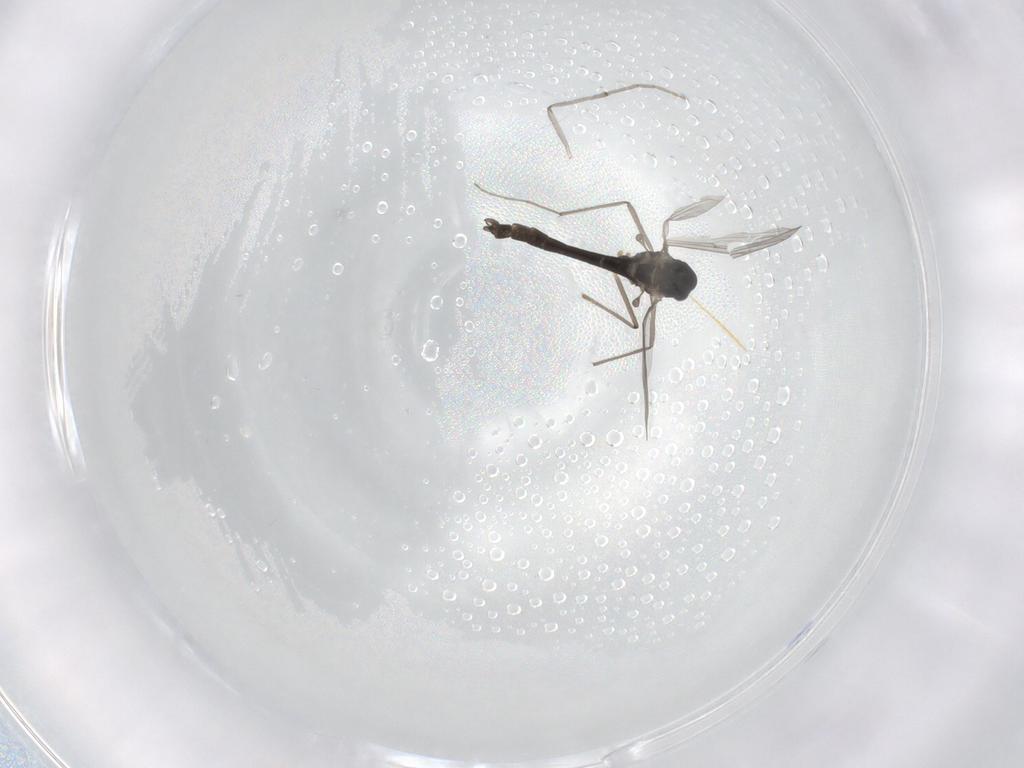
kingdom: Animalia
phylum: Arthropoda
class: Insecta
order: Diptera
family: Chironomidae
